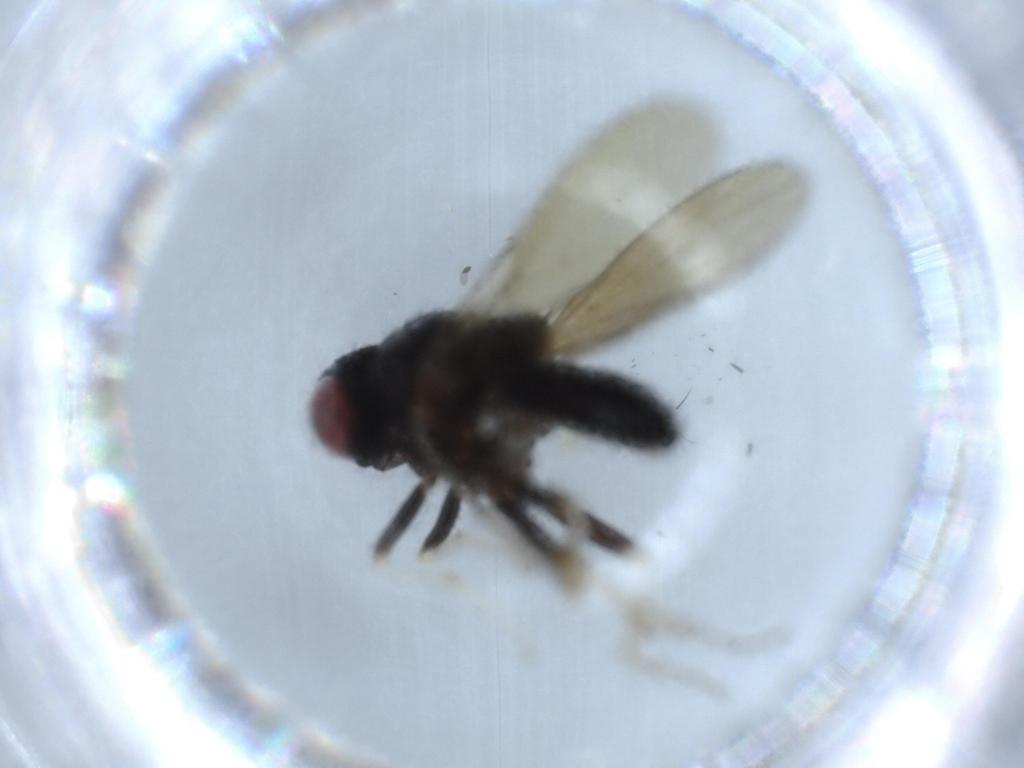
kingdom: Animalia
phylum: Arthropoda
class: Insecta
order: Diptera
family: Lauxaniidae
